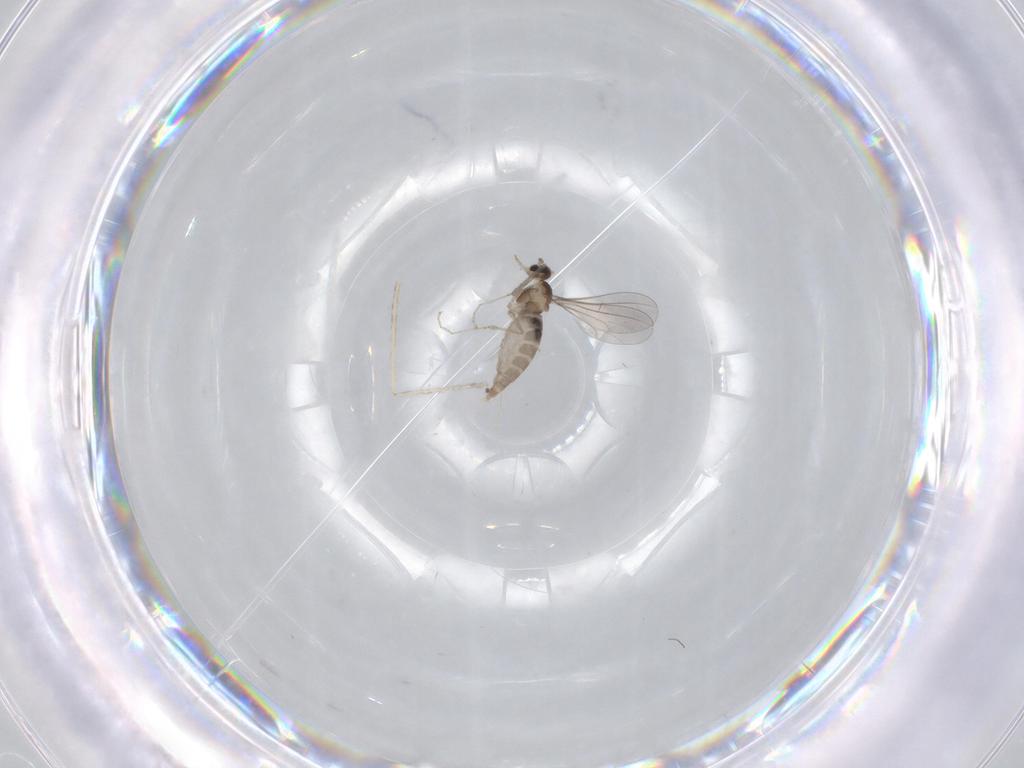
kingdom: Animalia
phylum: Arthropoda
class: Insecta
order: Diptera
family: Cecidomyiidae
